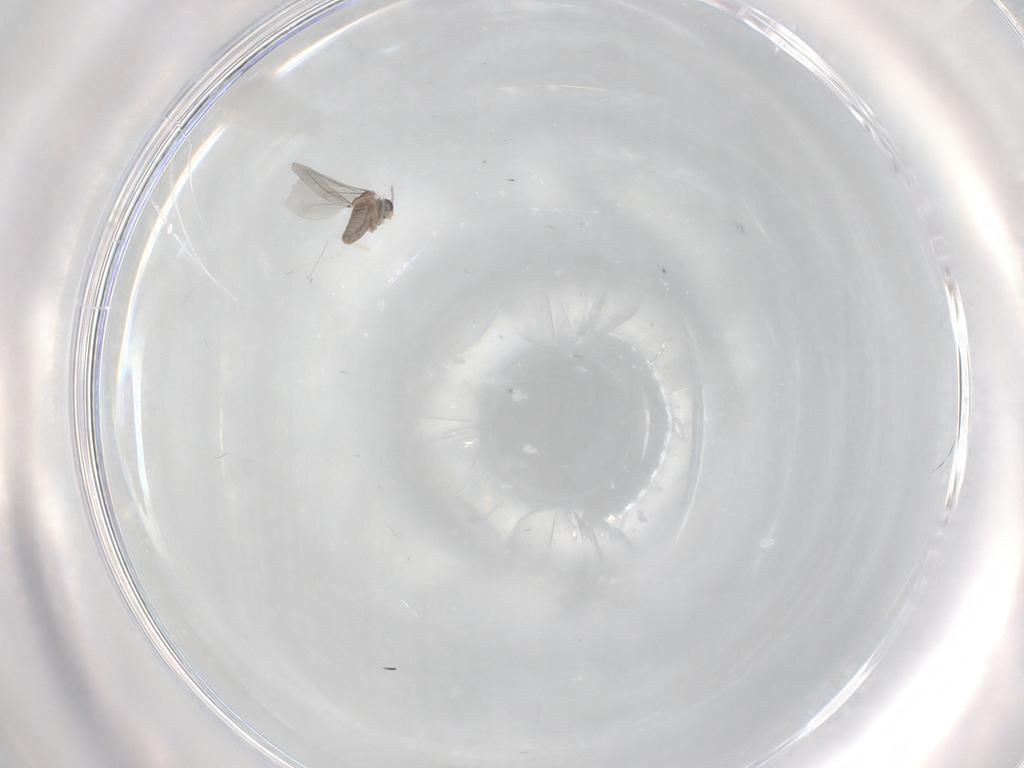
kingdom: Animalia
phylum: Arthropoda
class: Insecta
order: Diptera
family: Cecidomyiidae
